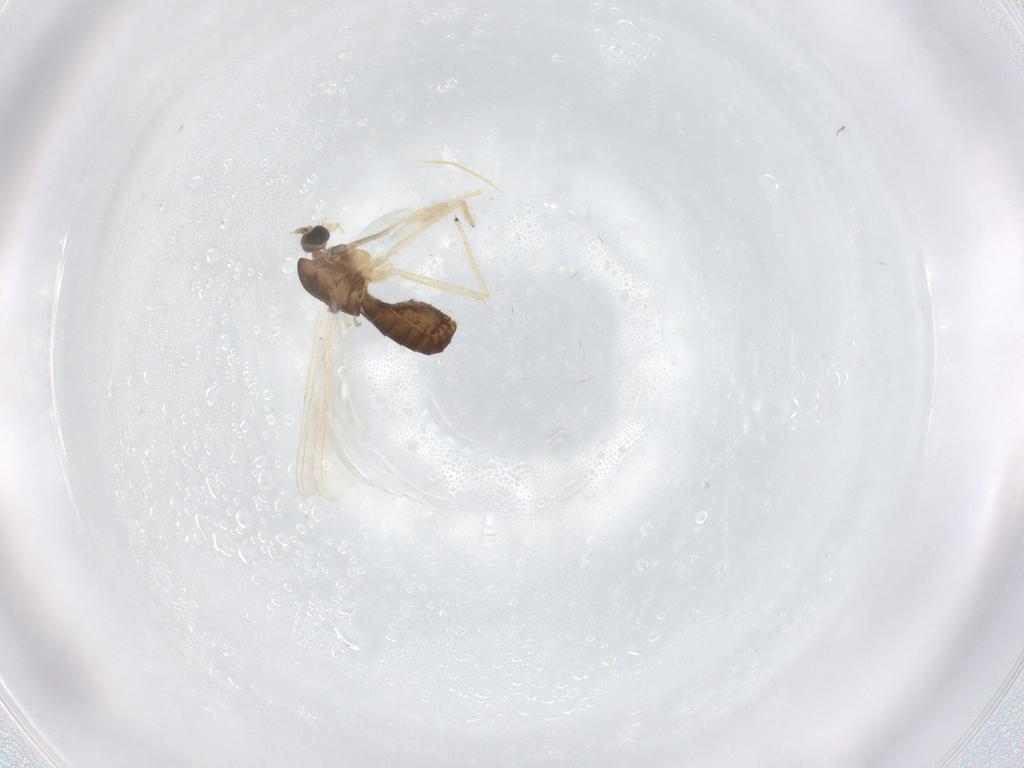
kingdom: Animalia
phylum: Arthropoda
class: Insecta
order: Diptera
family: Chironomidae
